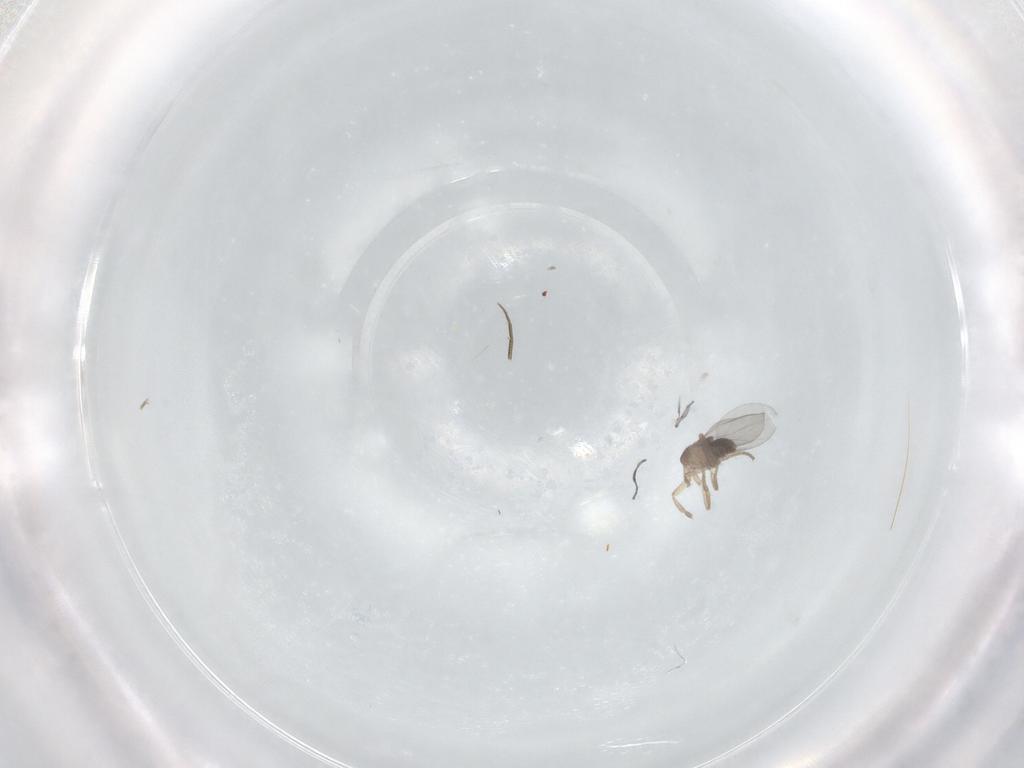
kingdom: Animalia
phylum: Arthropoda
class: Insecta
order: Diptera
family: Phoridae
